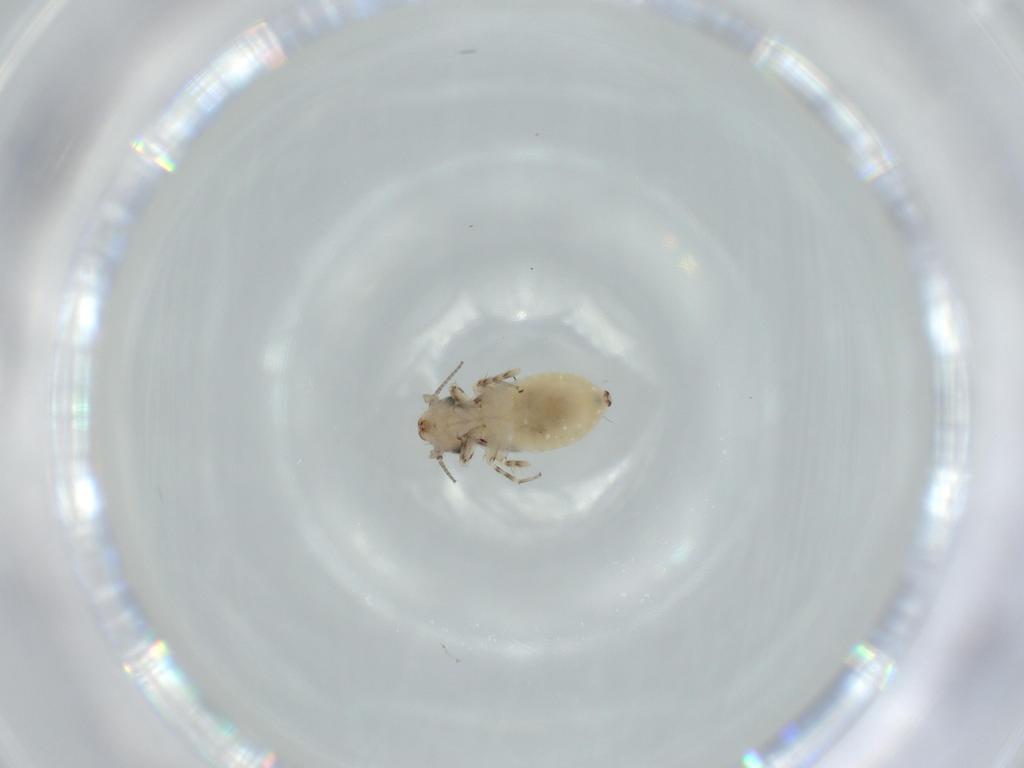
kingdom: Animalia
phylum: Arthropoda
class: Insecta
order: Psocodea
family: Lepidopsocidae
